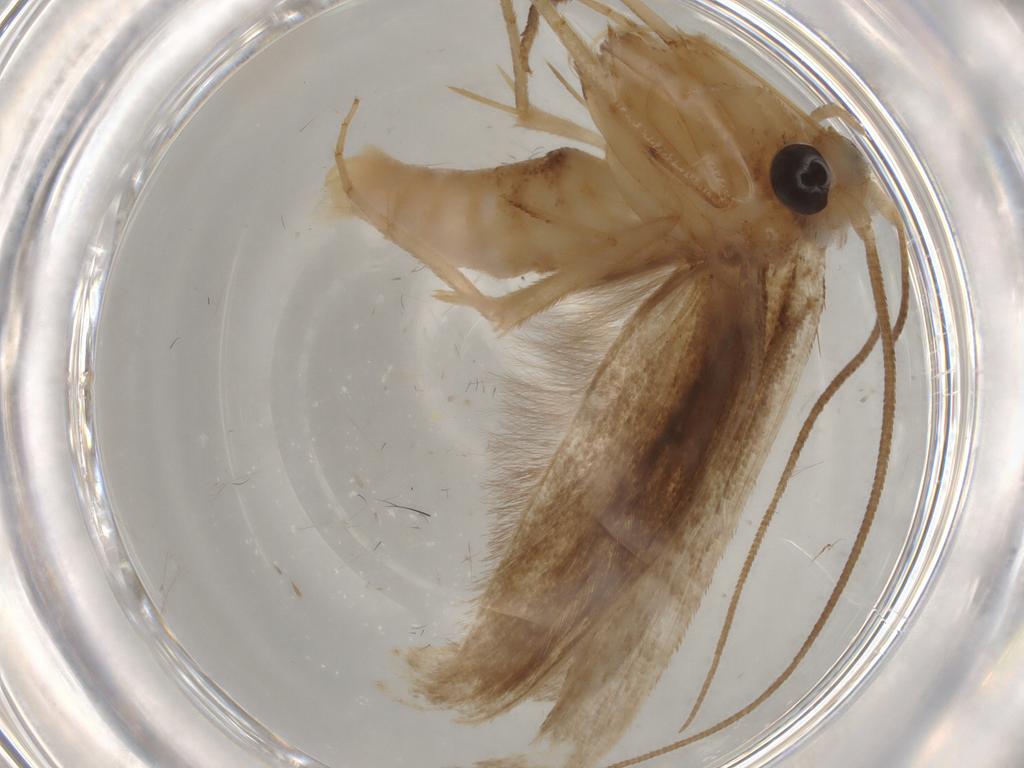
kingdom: Animalia
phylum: Arthropoda
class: Insecta
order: Lepidoptera
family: Yponomeutidae
